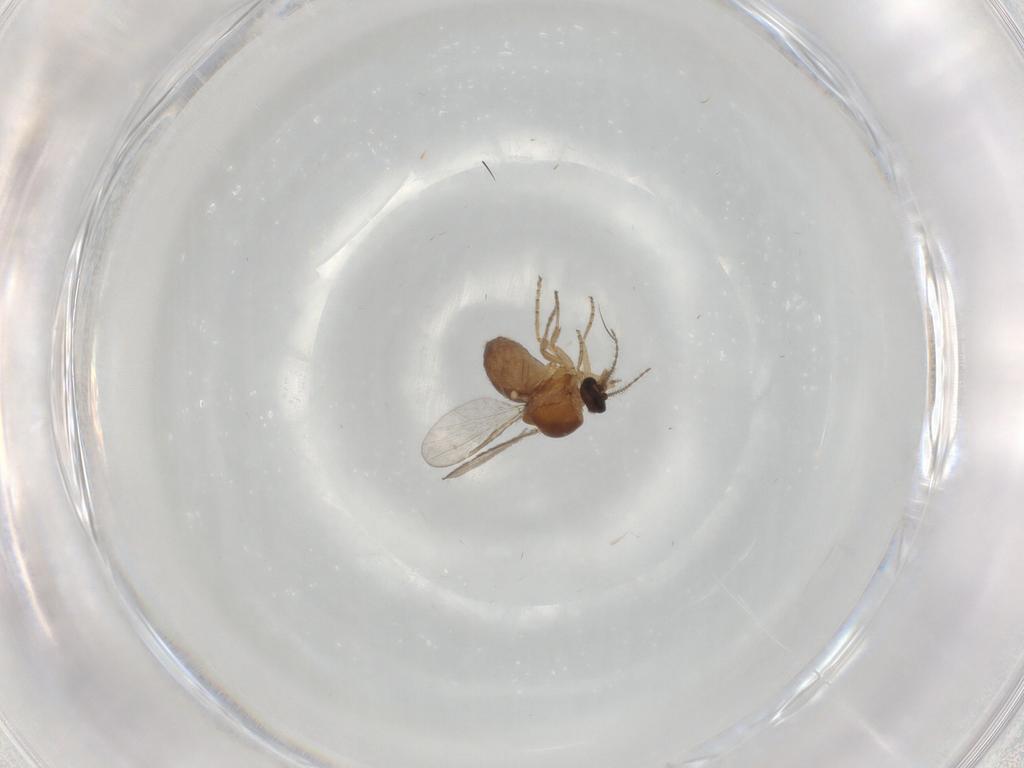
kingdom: Animalia
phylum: Arthropoda
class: Insecta
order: Diptera
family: Ceratopogonidae
